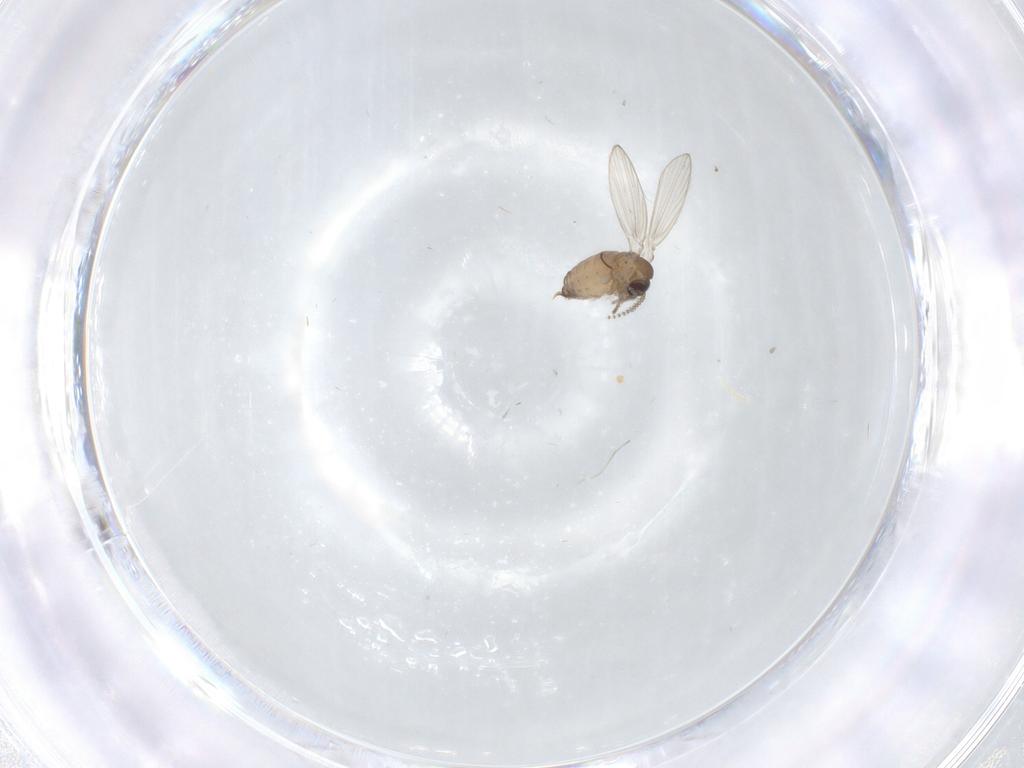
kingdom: Animalia
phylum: Arthropoda
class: Insecta
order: Diptera
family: Psychodidae
